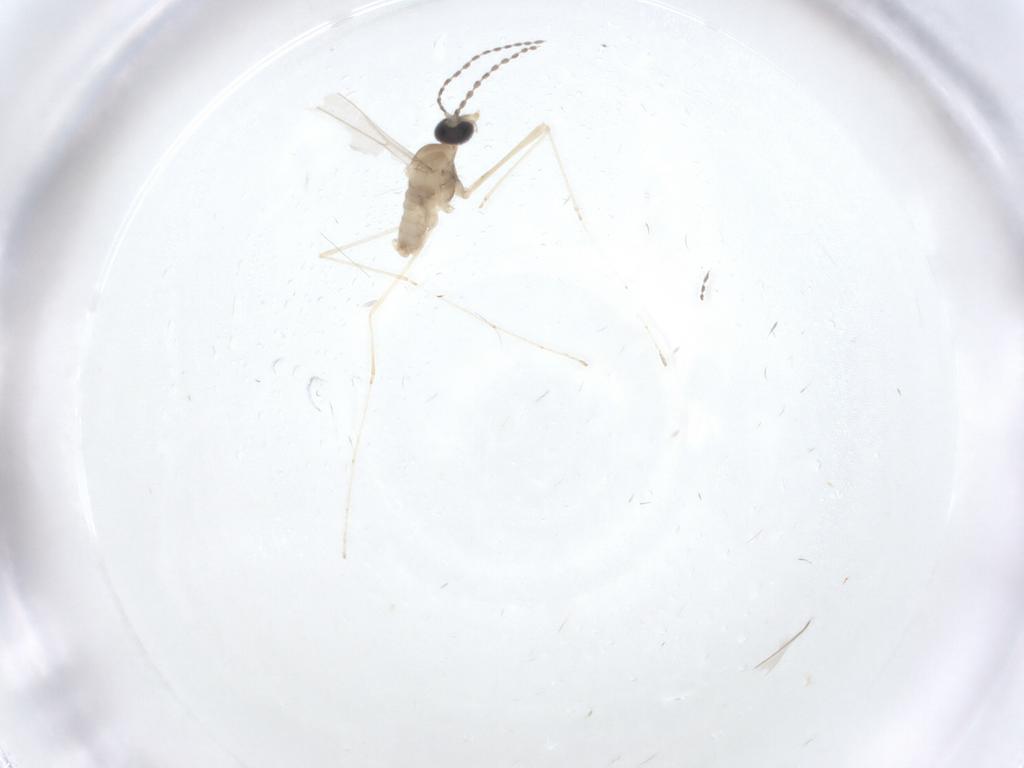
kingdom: Animalia
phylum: Arthropoda
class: Insecta
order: Diptera
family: Cecidomyiidae
